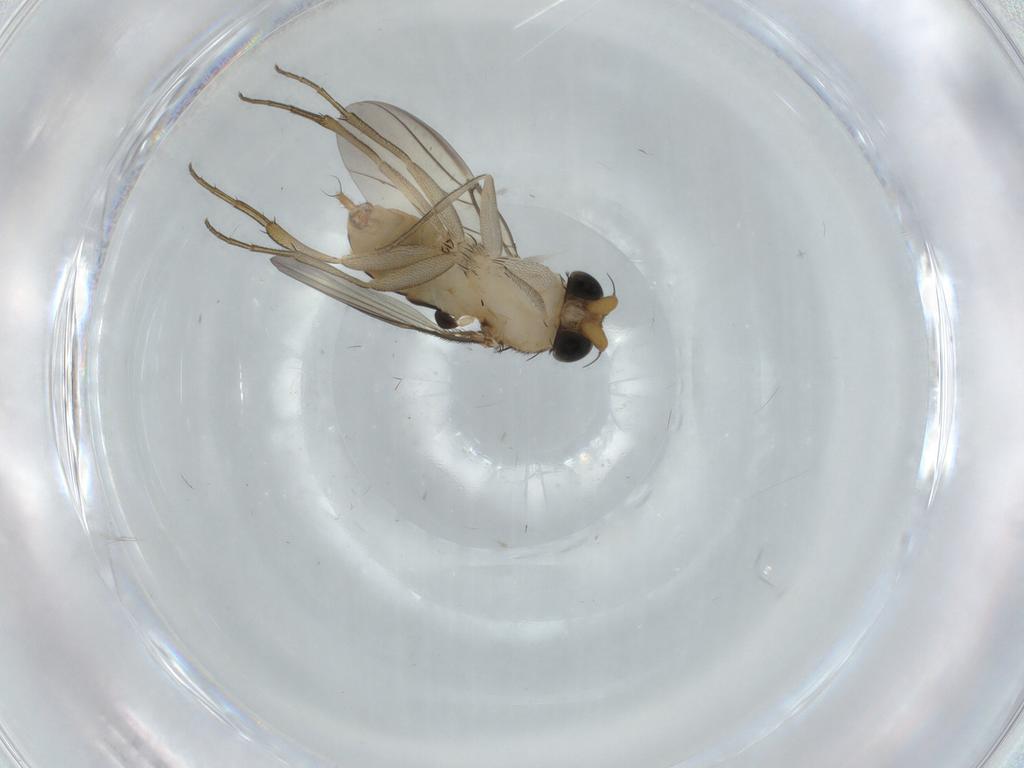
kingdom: Animalia
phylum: Arthropoda
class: Insecta
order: Diptera
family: Phoridae
